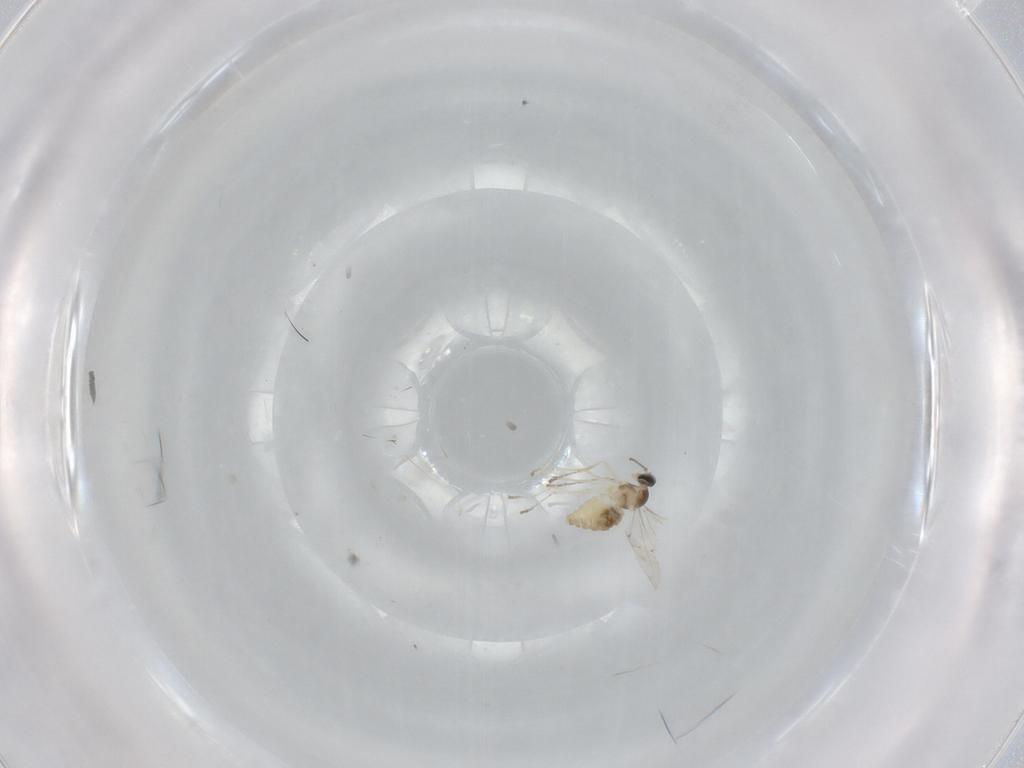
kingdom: Animalia
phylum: Arthropoda
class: Insecta
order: Diptera
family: Cecidomyiidae
